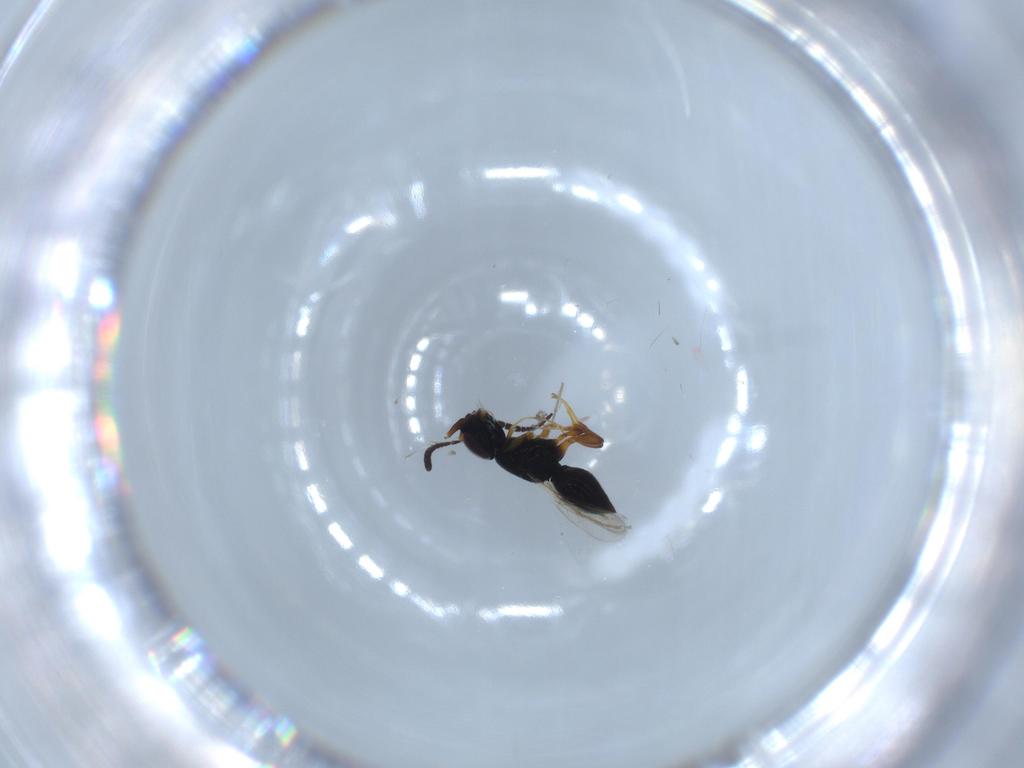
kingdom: Animalia
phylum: Arthropoda
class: Insecta
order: Hymenoptera
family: Ceraphronidae
